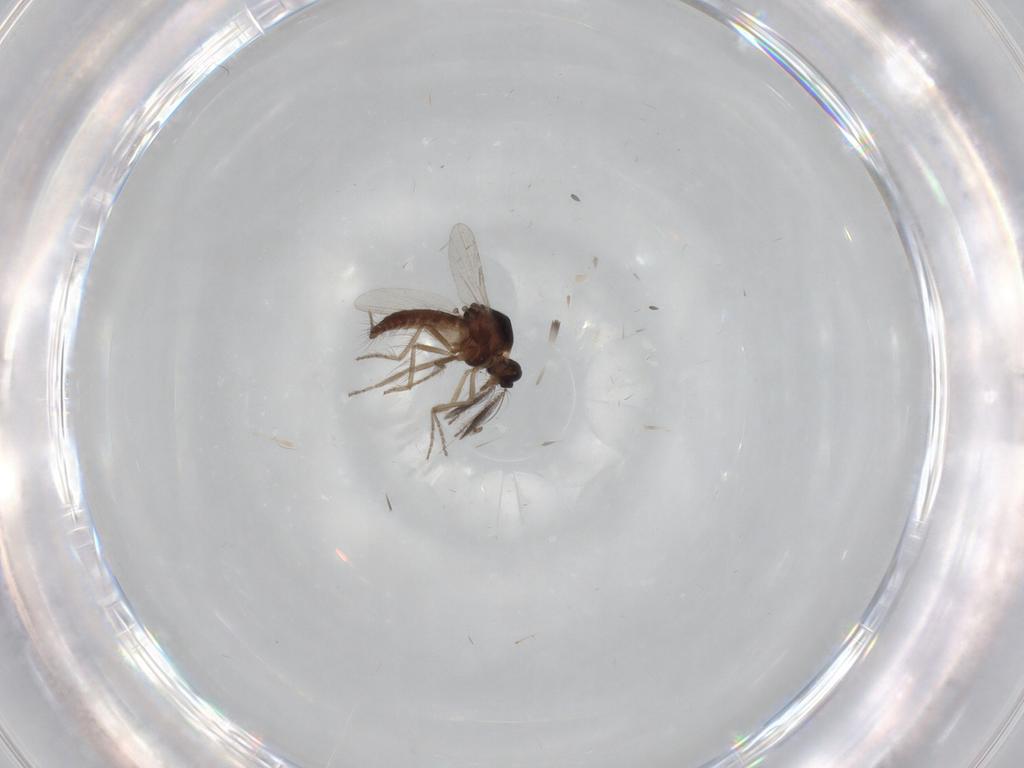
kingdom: Animalia
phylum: Arthropoda
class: Insecta
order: Diptera
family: Ceratopogonidae
